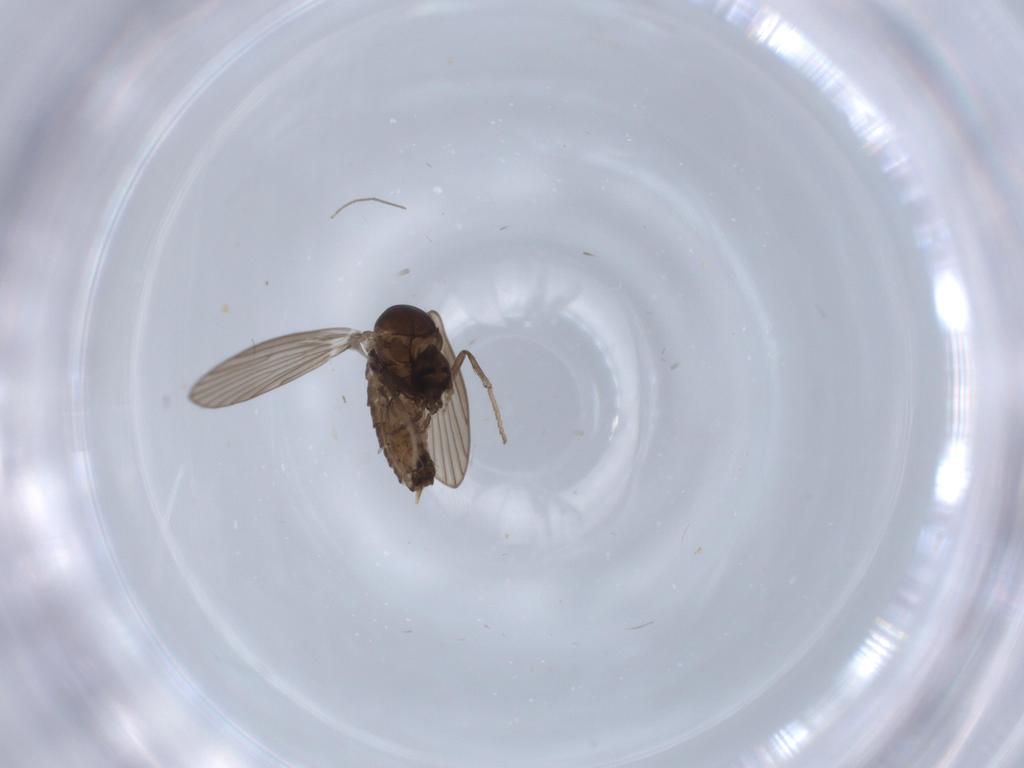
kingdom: Animalia
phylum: Arthropoda
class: Insecta
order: Diptera
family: Psychodidae
